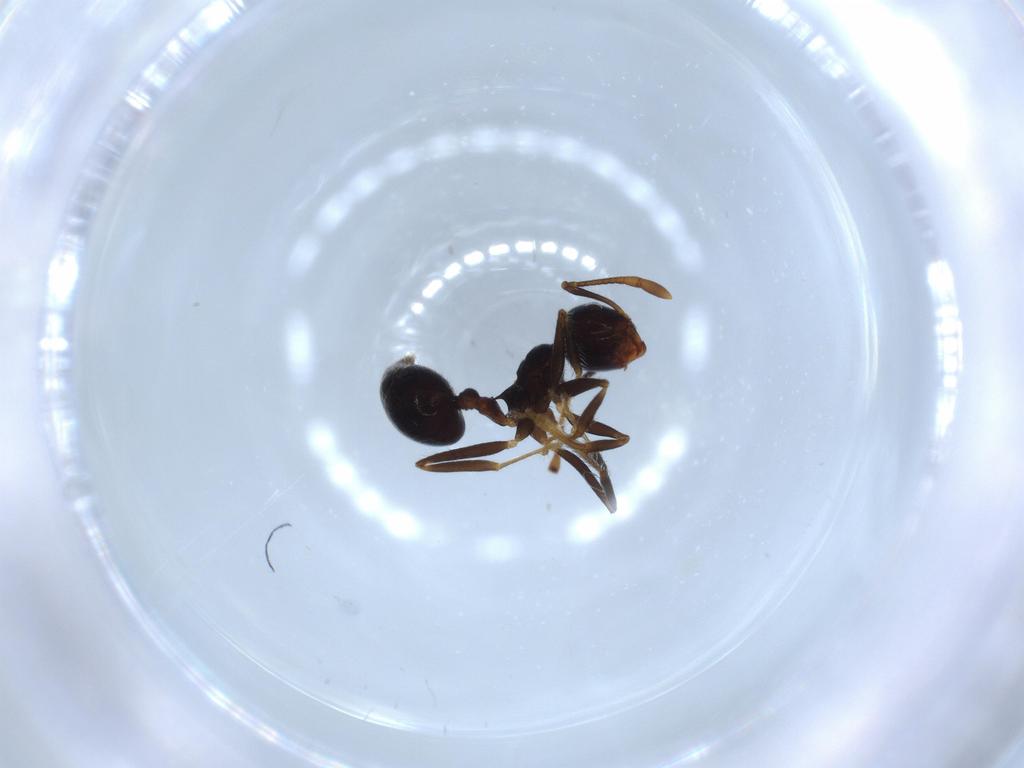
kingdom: Animalia
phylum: Arthropoda
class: Insecta
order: Hymenoptera
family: Formicidae
